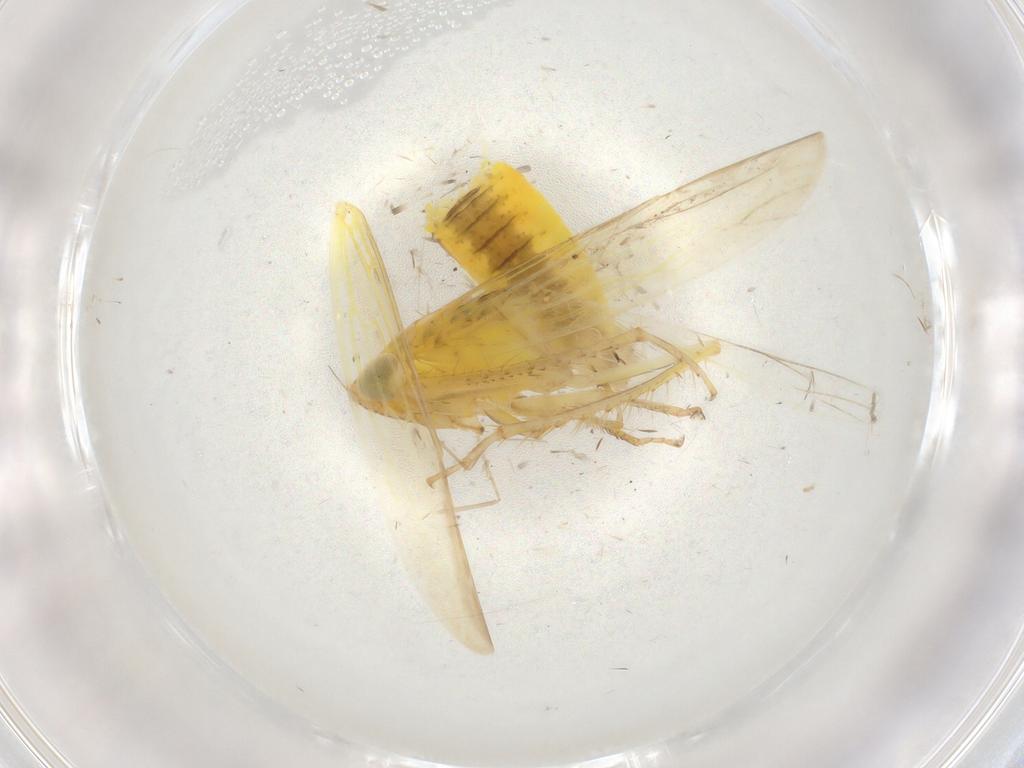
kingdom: Animalia
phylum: Arthropoda
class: Insecta
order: Hemiptera
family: Cicadellidae
